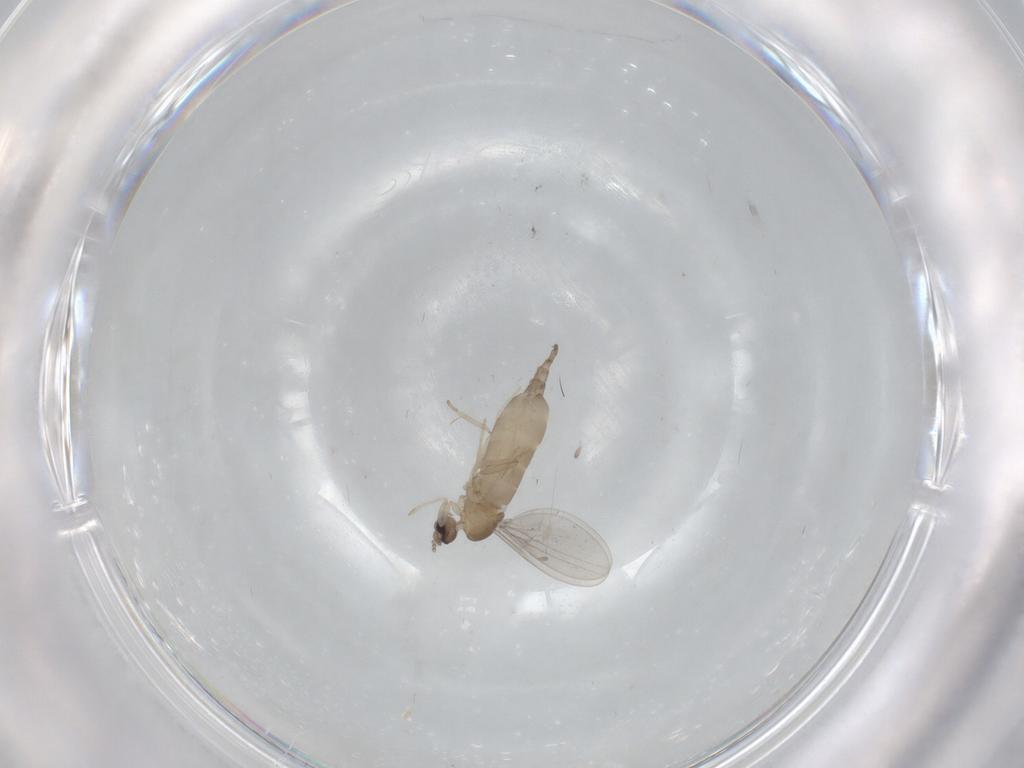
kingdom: Animalia
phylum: Arthropoda
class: Insecta
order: Diptera
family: Cecidomyiidae
